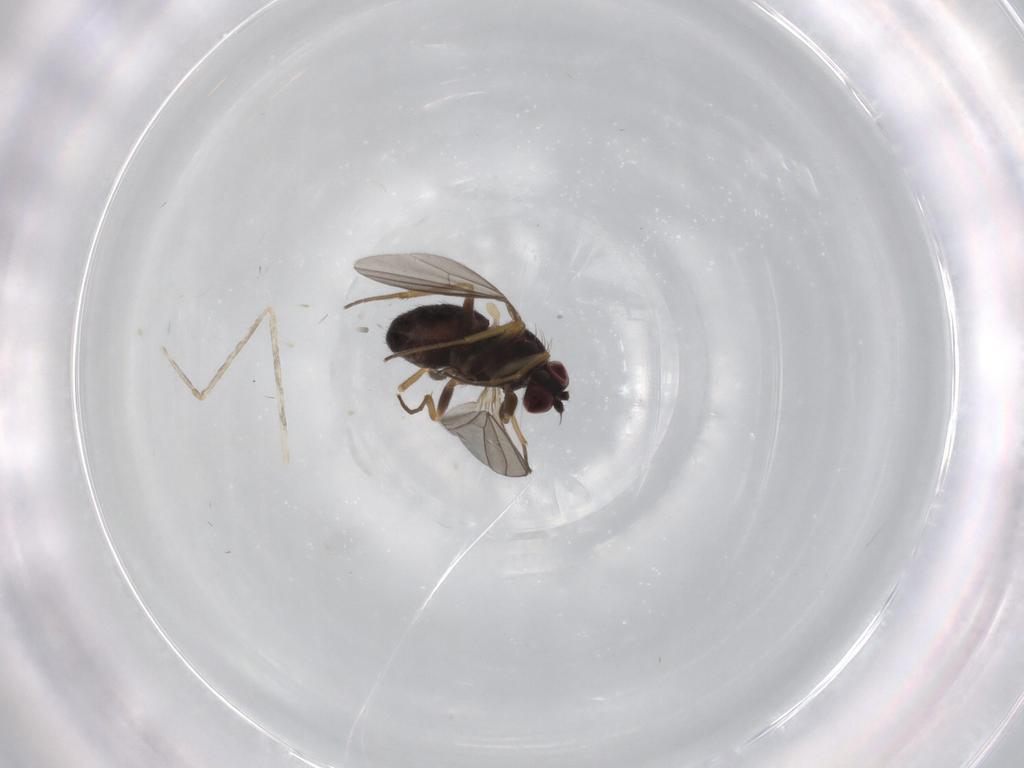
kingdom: Animalia
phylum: Arthropoda
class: Insecta
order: Diptera
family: Dolichopodidae
